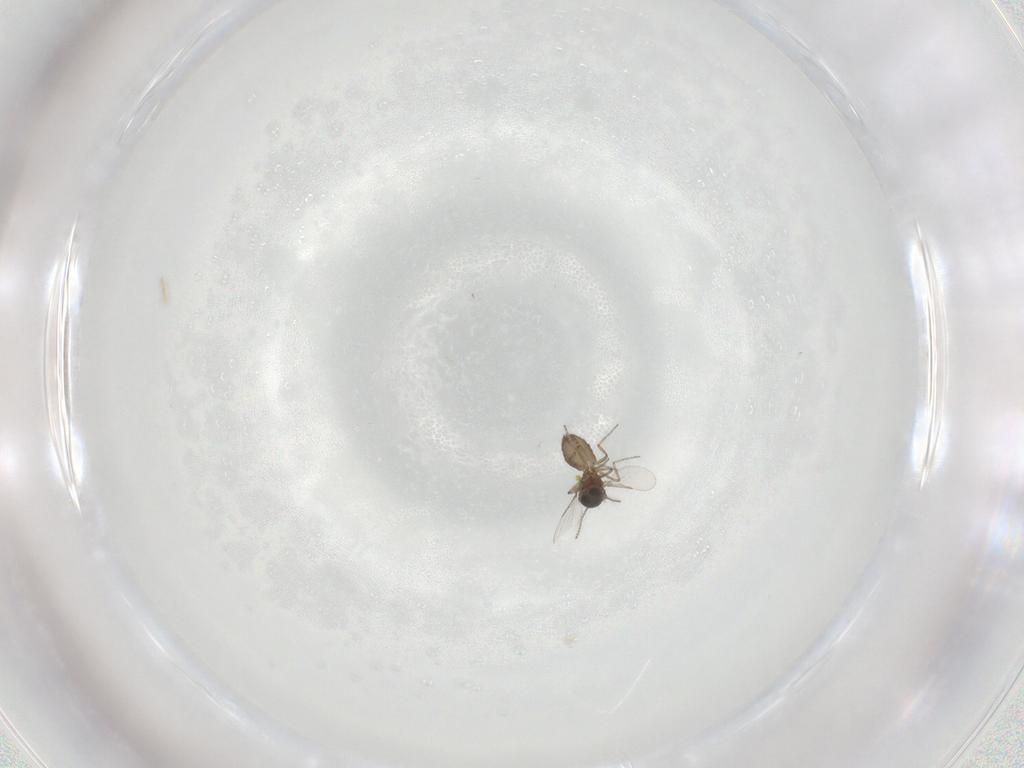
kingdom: Animalia
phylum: Arthropoda
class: Insecta
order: Diptera
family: Ceratopogonidae
